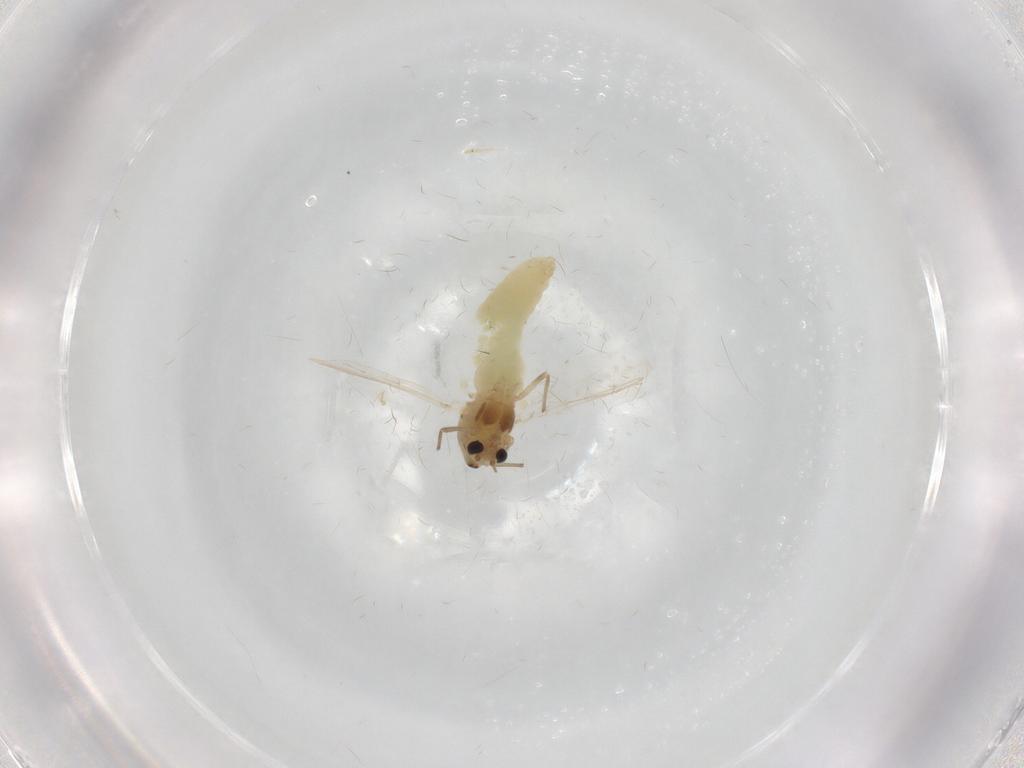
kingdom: Animalia
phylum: Arthropoda
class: Insecta
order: Diptera
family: Chironomidae
